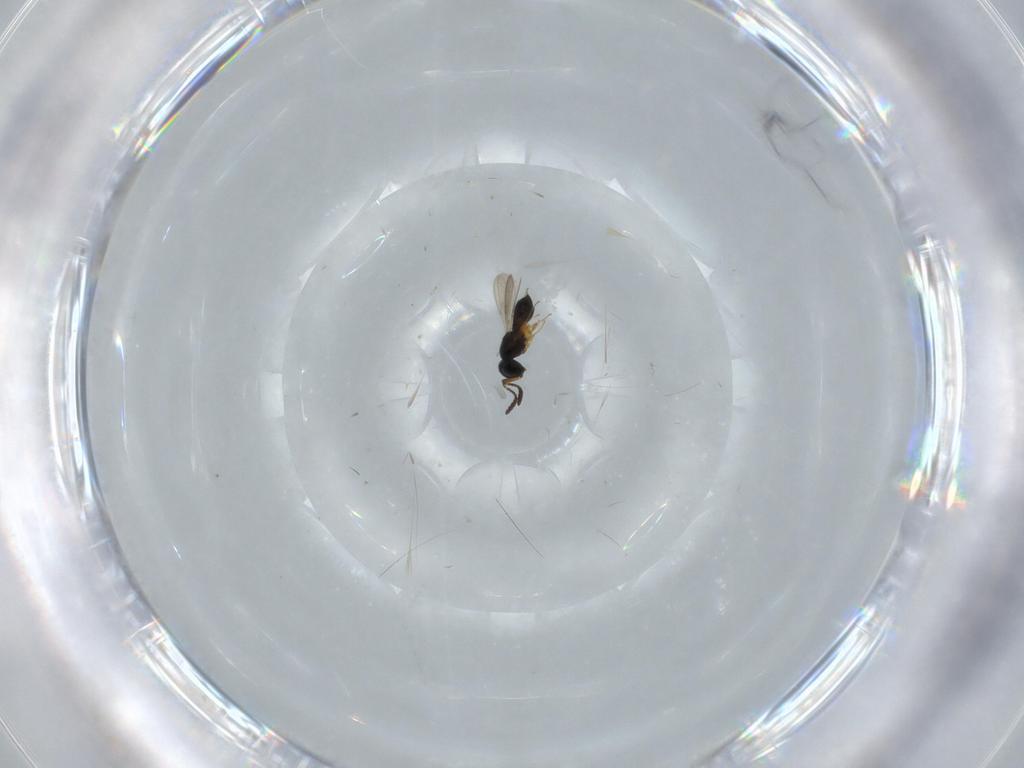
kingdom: Animalia
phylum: Arthropoda
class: Insecta
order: Hymenoptera
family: Scelionidae
